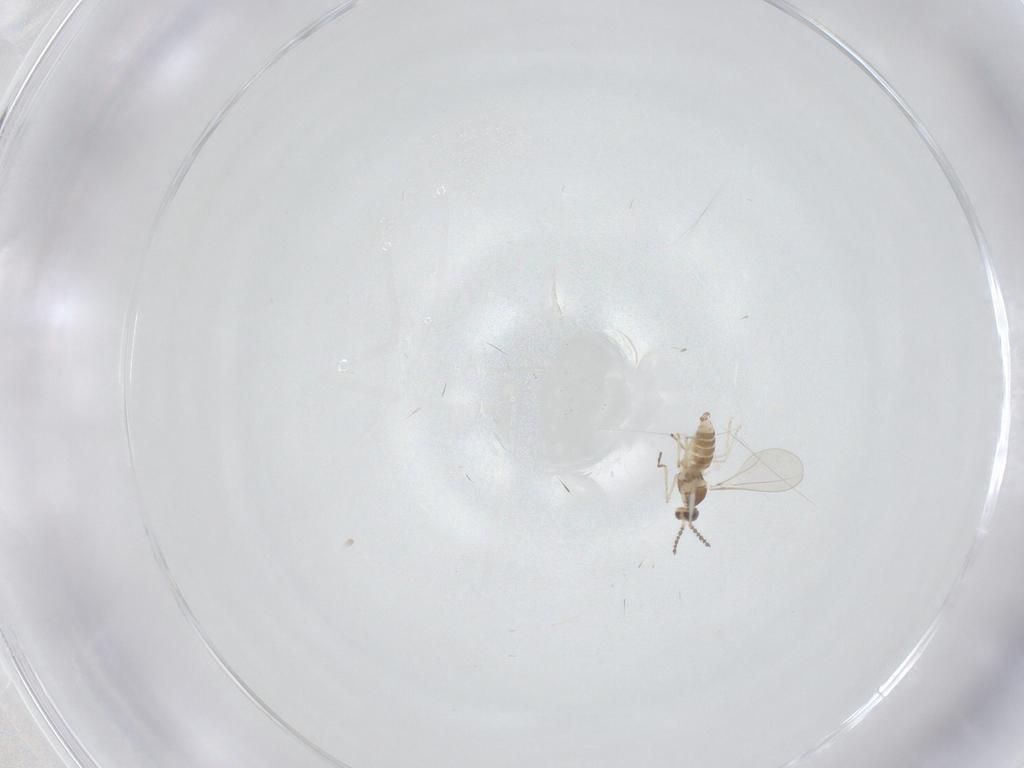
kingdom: Animalia
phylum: Arthropoda
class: Insecta
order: Diptera
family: Cecidomyiidae
